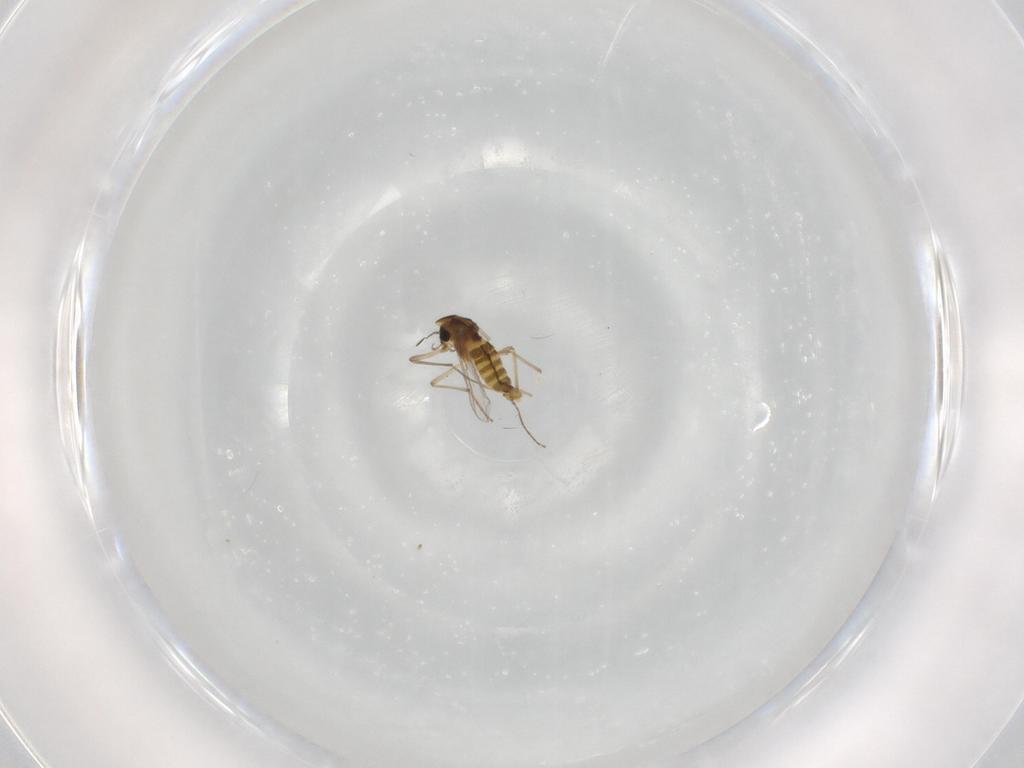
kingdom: Animalia
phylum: Arthropoda
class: Insecta
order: Diptera
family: Chironomidae
